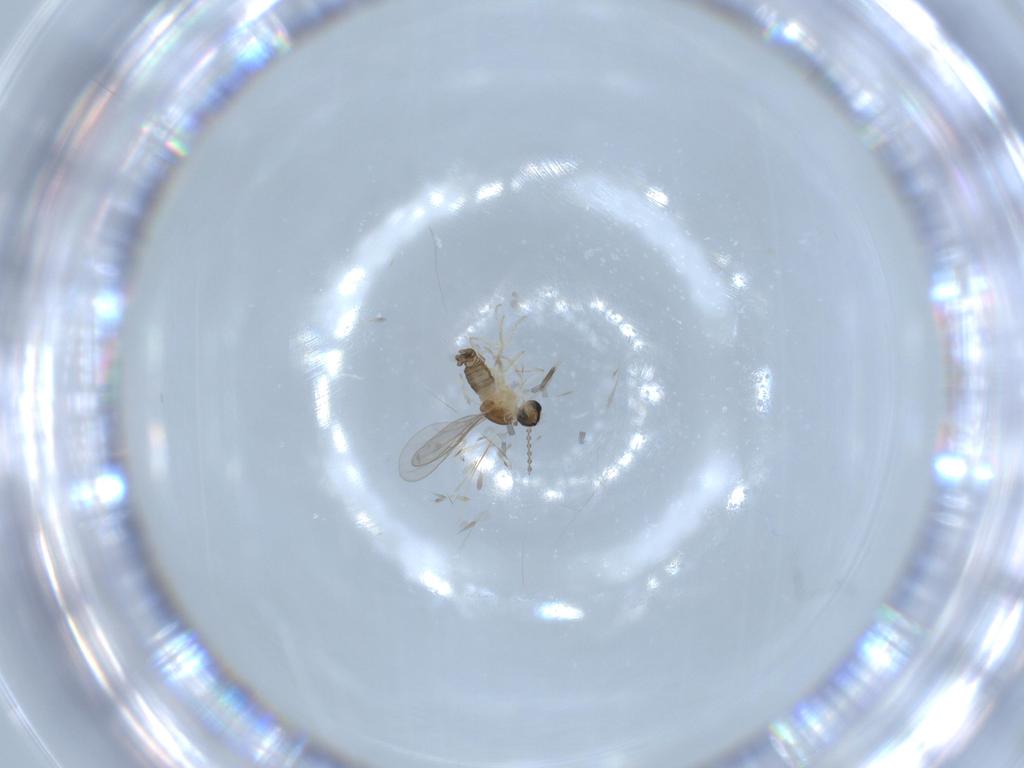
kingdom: Animalia
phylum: Arthropoda
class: Insecta
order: Diptera
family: Cecidomyiidae
